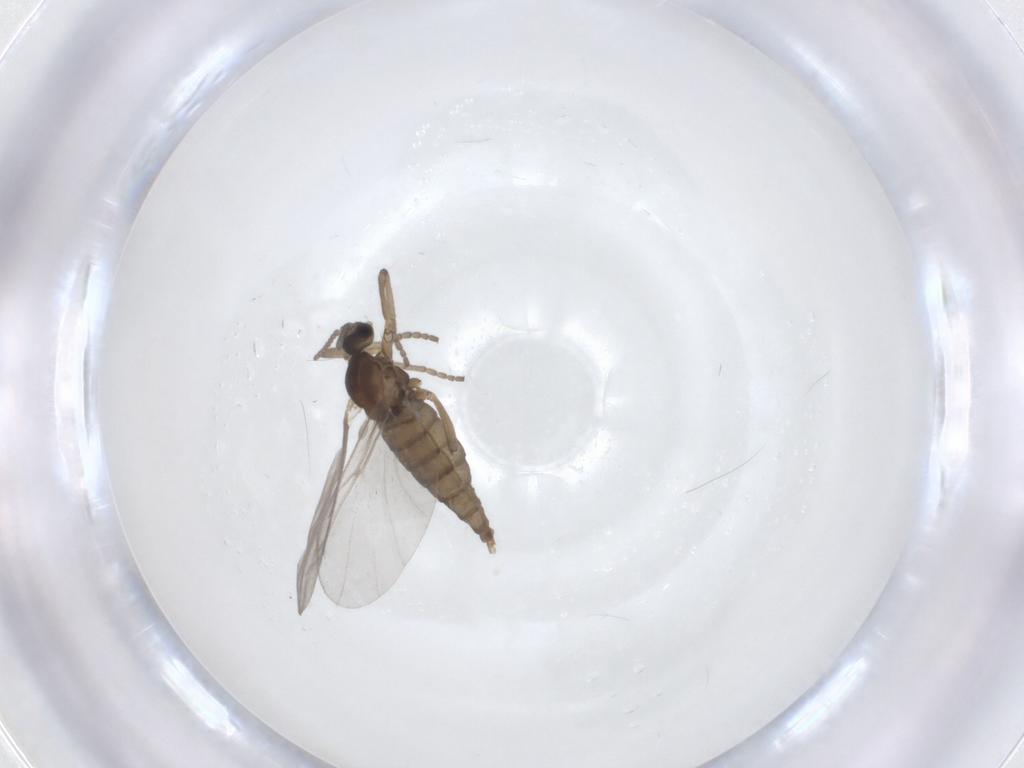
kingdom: Animalia
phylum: Arthropoda
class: Insecta
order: Diptera
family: Cecidomyiidae
